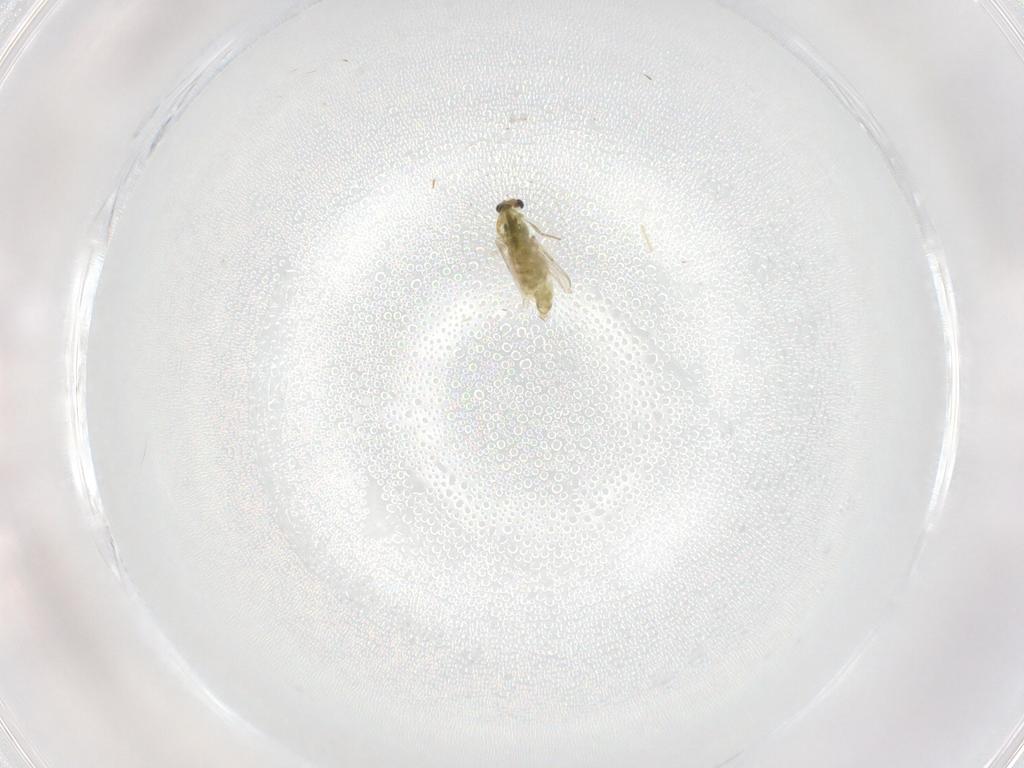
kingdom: Animalia
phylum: Arthropoda
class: Insecta
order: Diptera
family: Chironomidae
